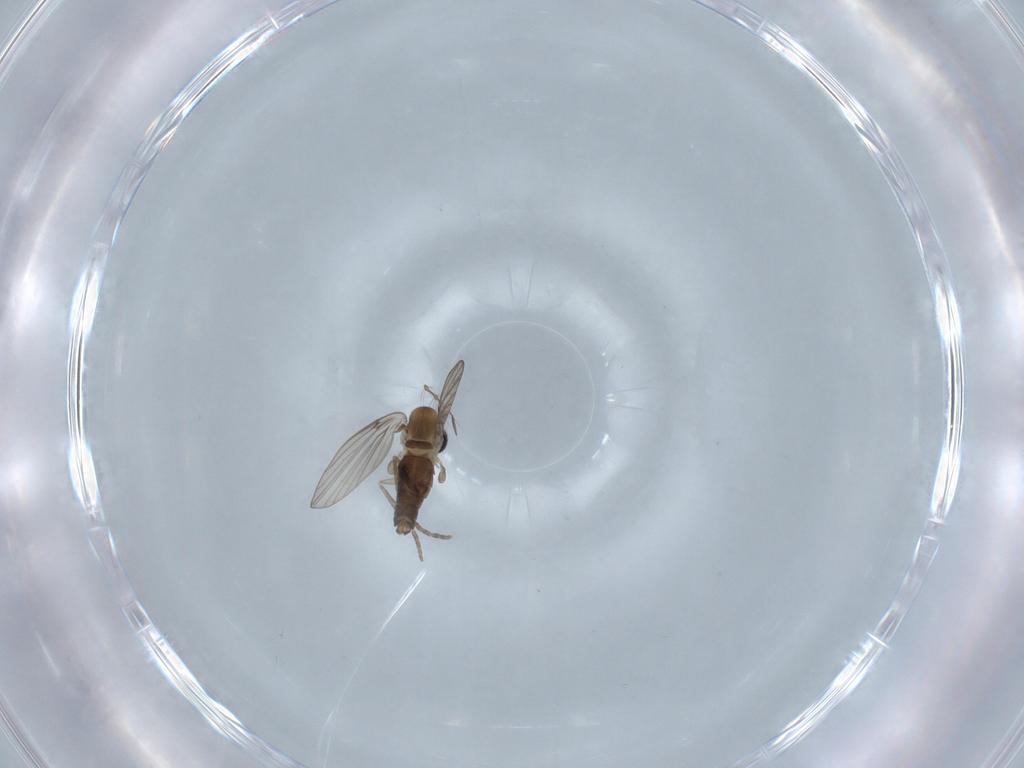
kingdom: Animalia
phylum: Arthropoda
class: Insecta
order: Diptera
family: Psychodidae
